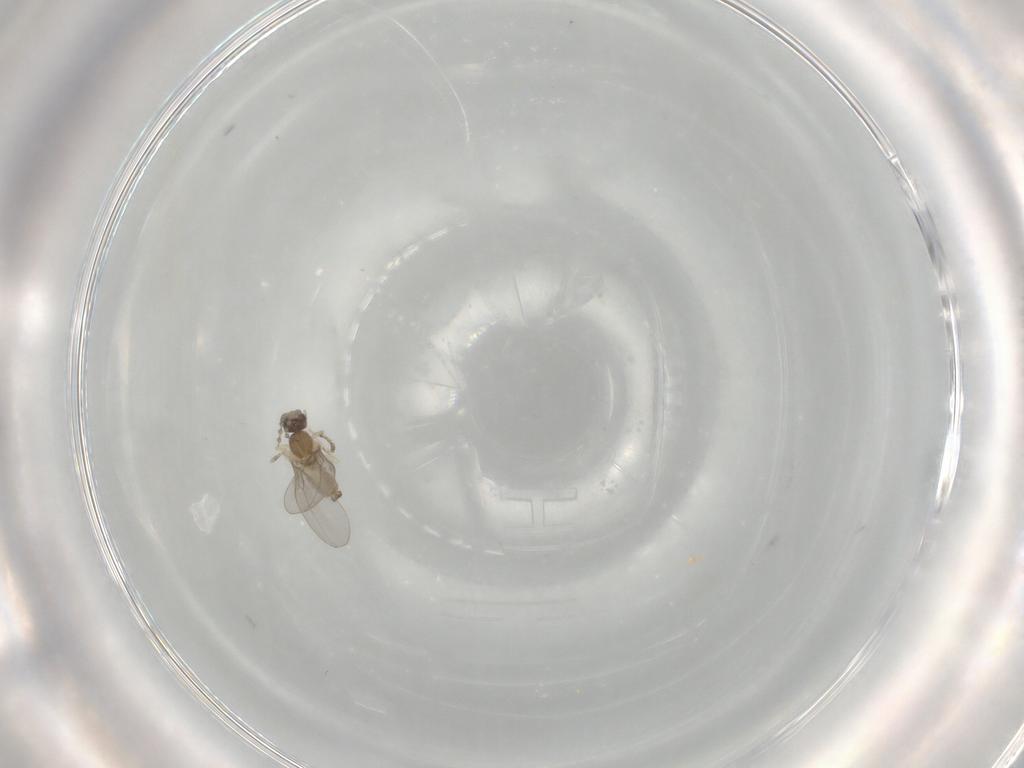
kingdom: Animalia
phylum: Arthropoda
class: Insecta
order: Diptera
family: Cecidomyiidae
